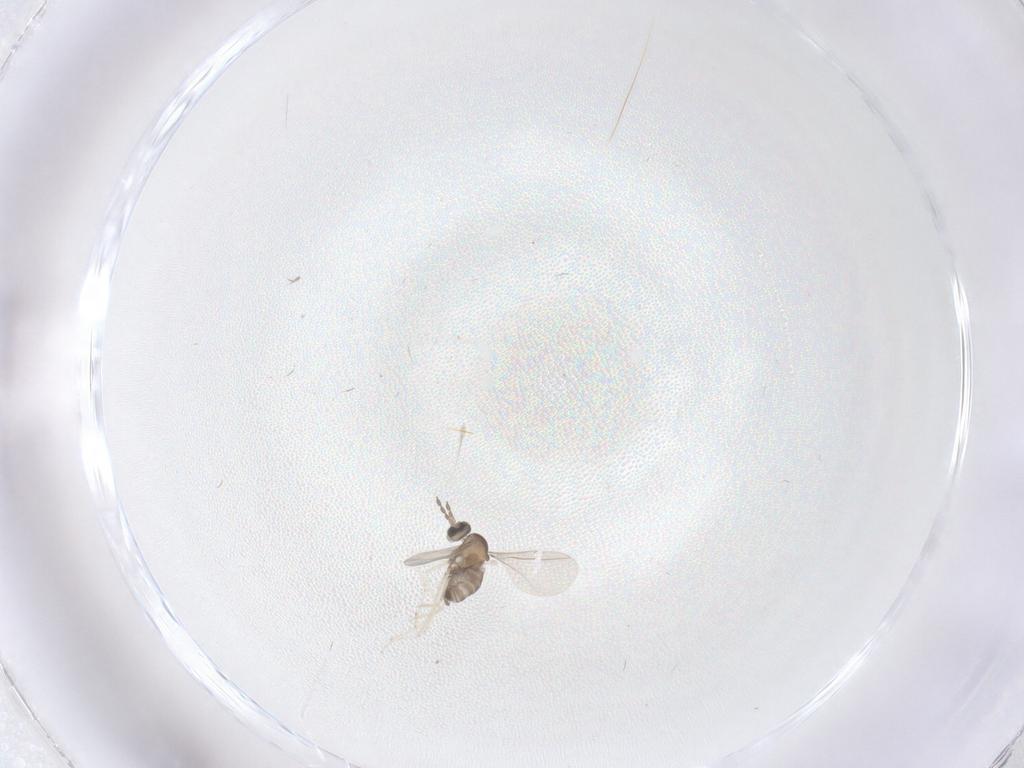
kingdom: Animalia
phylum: Arthropoda
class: Insecta
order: Diptera
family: Cecidomyiidae
